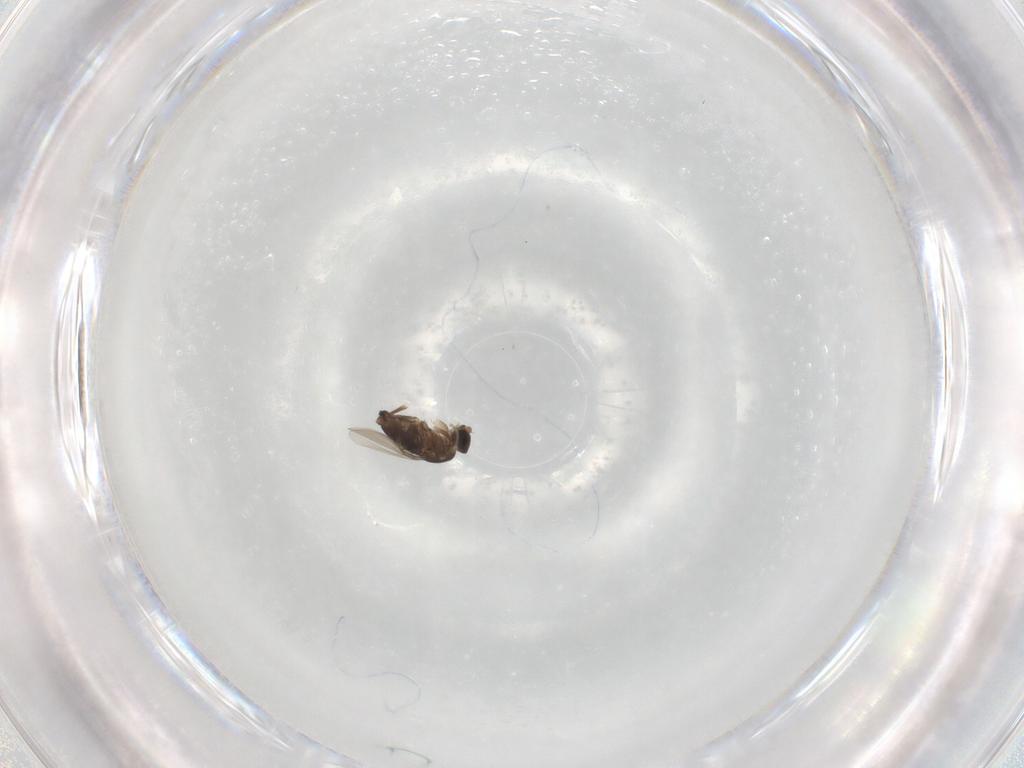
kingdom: Animalia
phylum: Arthropoda
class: Insecta
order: Diptera
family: Phoridae
